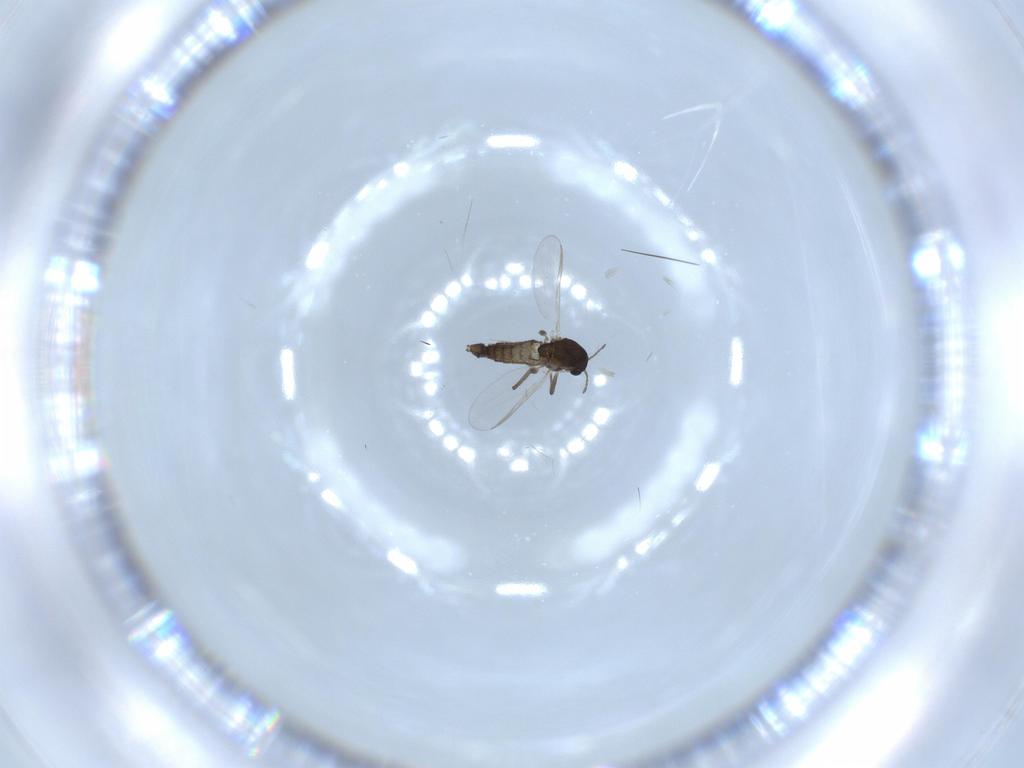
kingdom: Animalia
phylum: Arthropoda
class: Insecta
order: Diptera
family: Chironomidae
